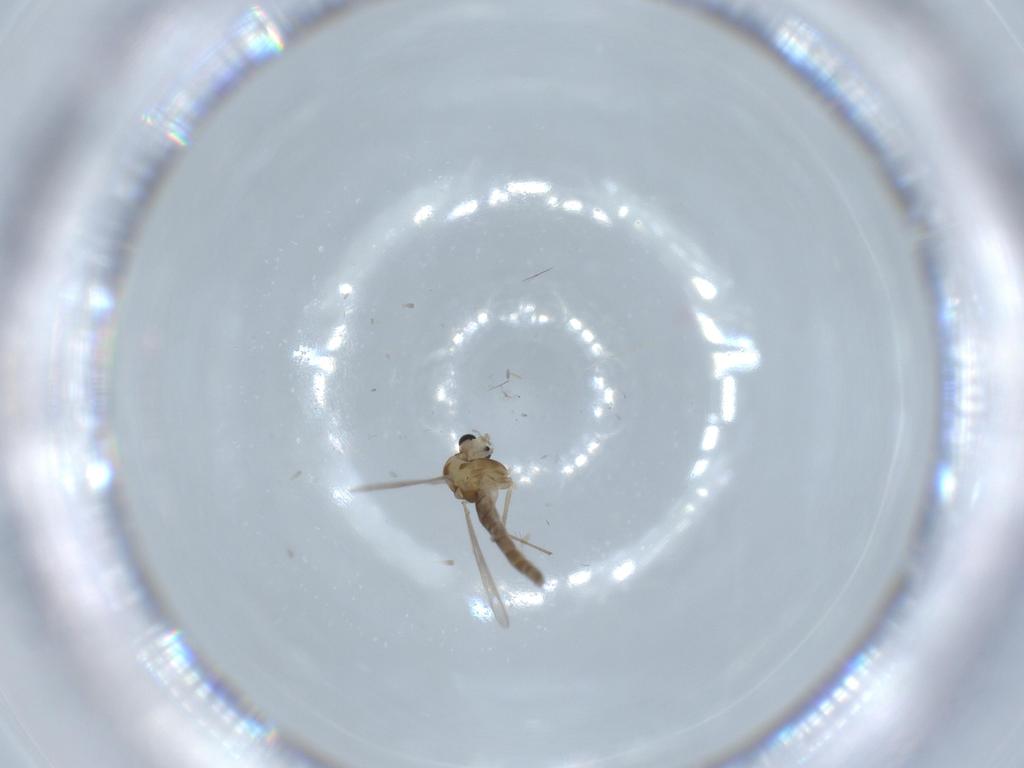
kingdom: Animalia
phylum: Arthropoda
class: Insecta
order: Diptera
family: Chironomidae
